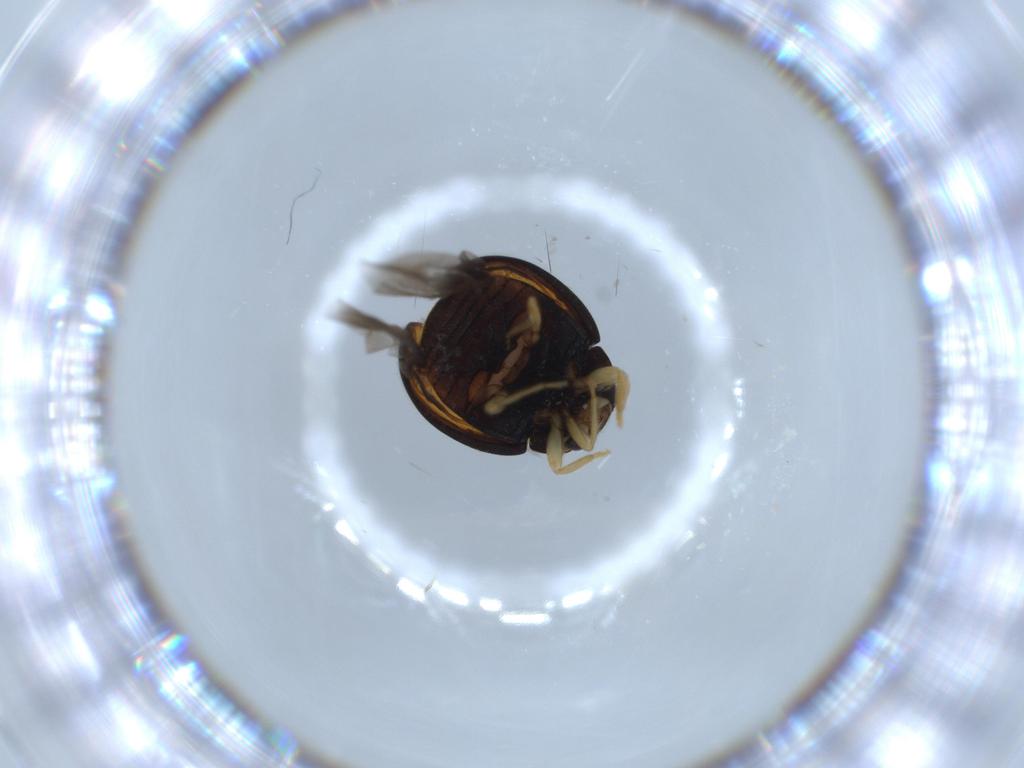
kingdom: Animalia
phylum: Arthropoda
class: Insecta
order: Coleoptera
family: Coccinellidae
